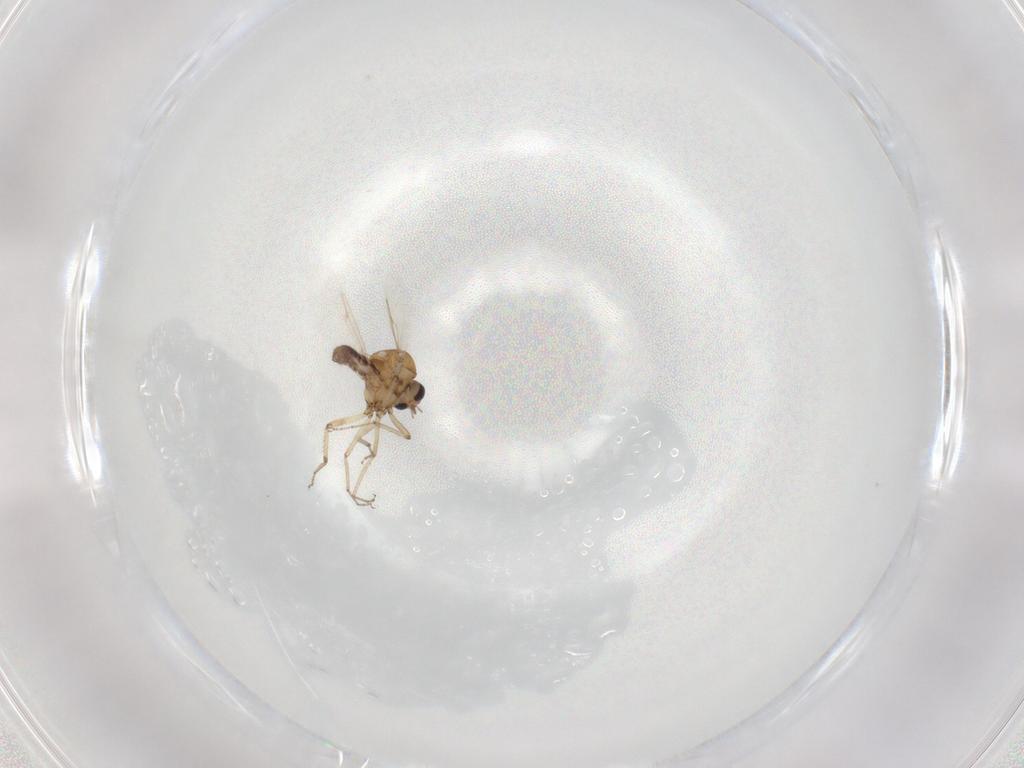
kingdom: Animalia
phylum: Arthropoda
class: Insecta
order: Diptera
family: Ceratopogonidae
